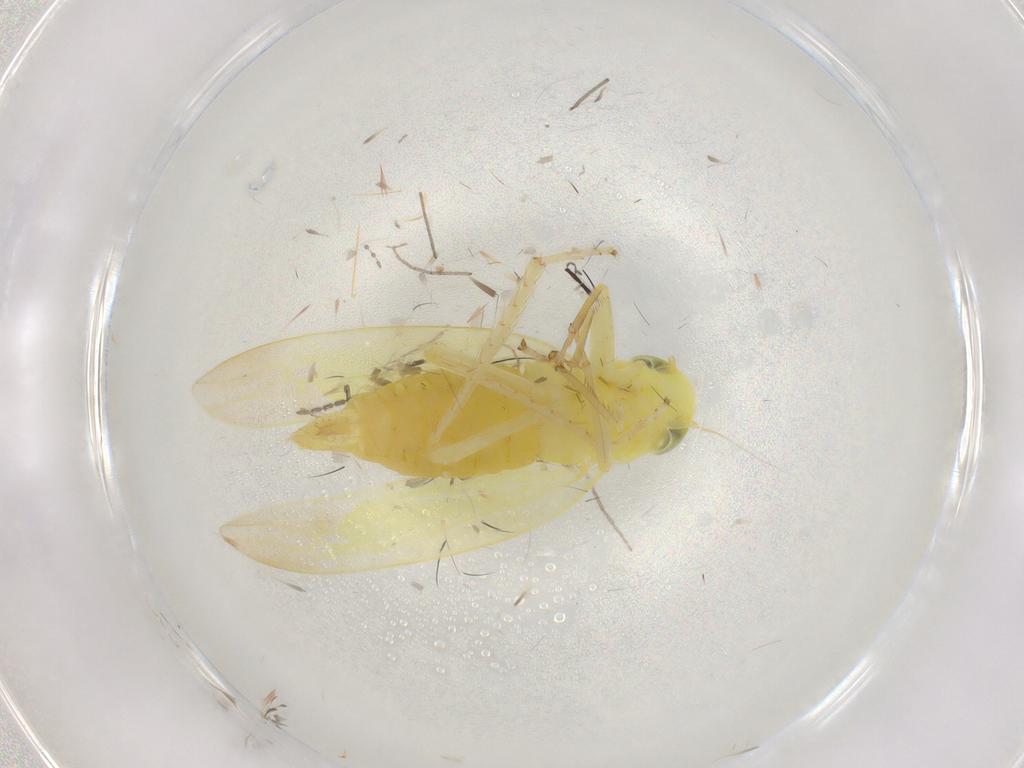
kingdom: Animalia
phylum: Arthropoda
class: Insecta
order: Hemiptera
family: Cicadellidae
